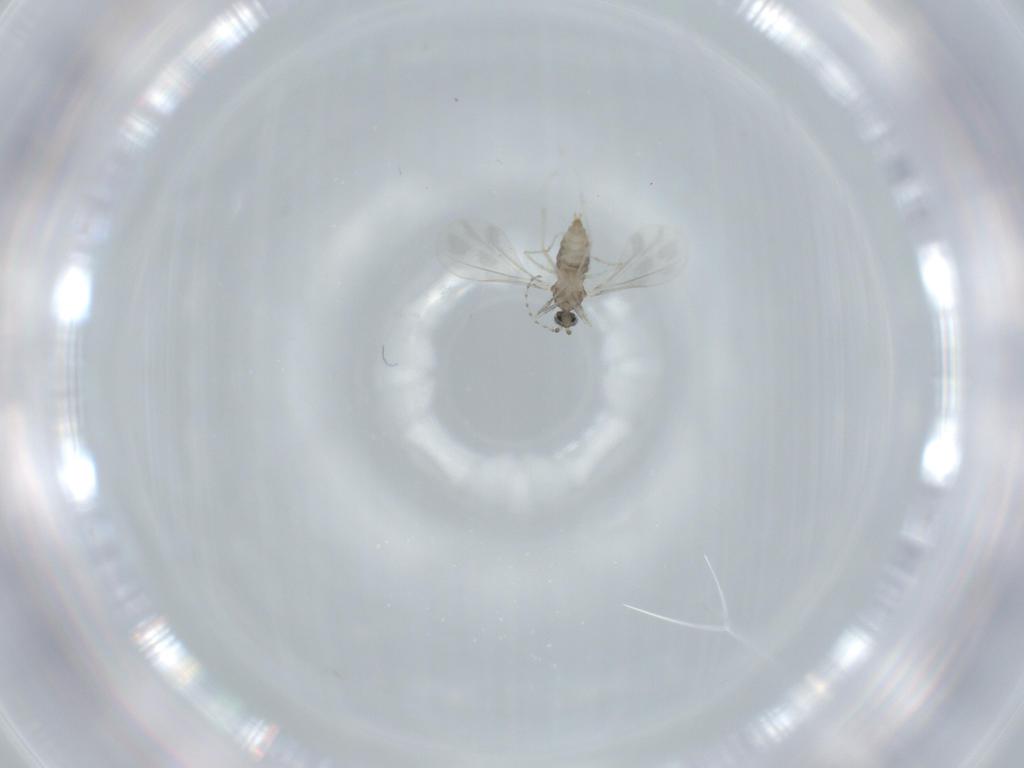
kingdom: Animalia
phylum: Arthropoda
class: Insecta
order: Diptera
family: Cecidomyiidae
